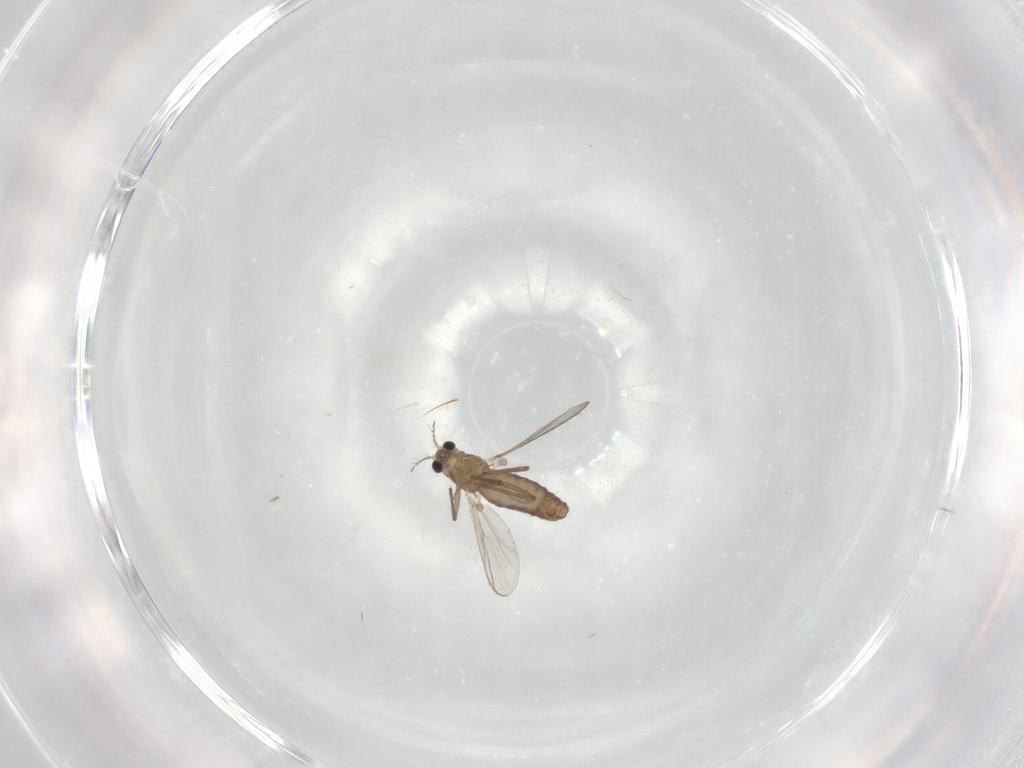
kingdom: Animalia
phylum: Arthropoda
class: Insecta
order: Diptera
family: Chironomidae
